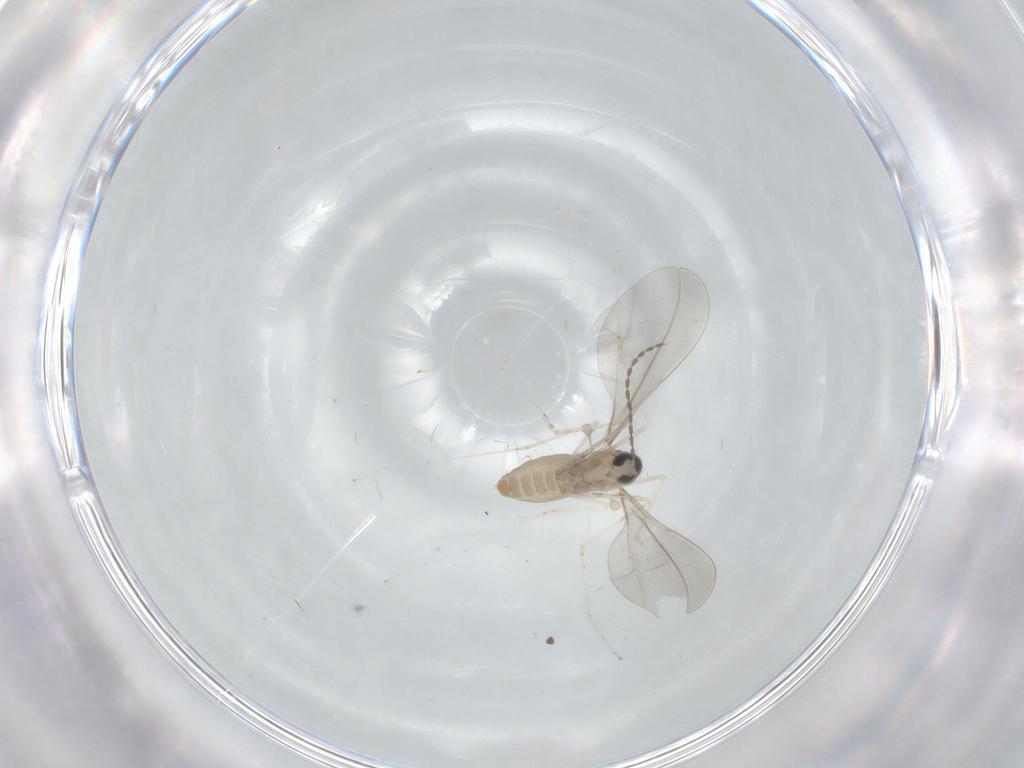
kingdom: Animalia
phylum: Arthropoda
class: Insecta
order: Diptera
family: Cecidomyiidae
